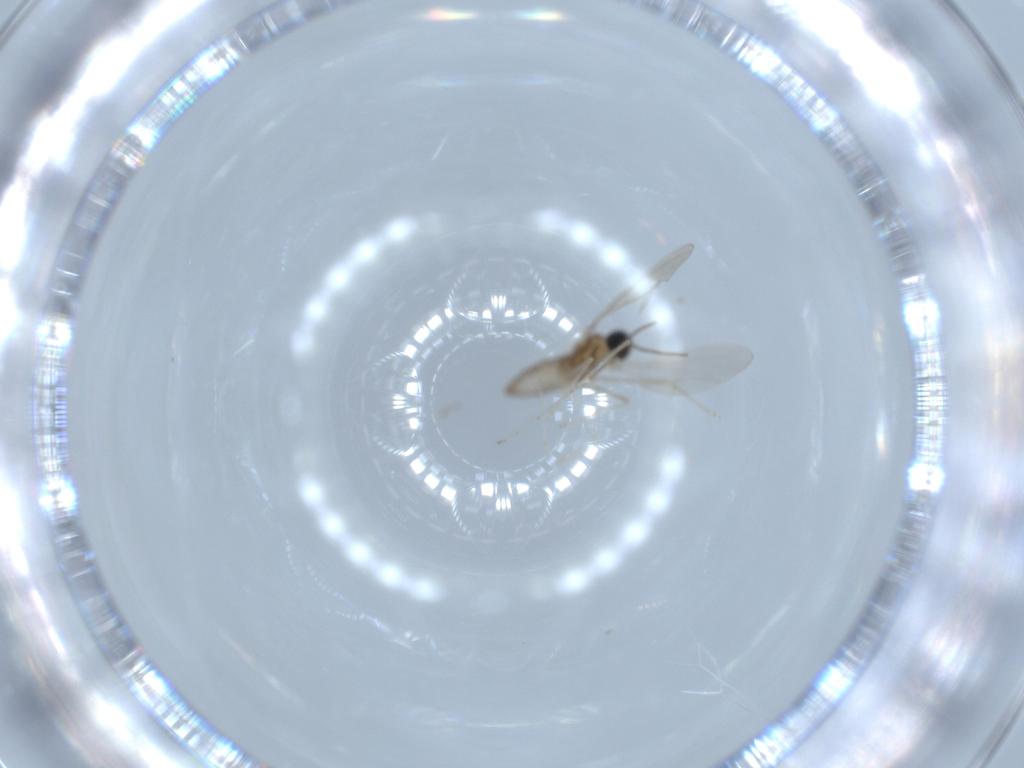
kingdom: Animalia
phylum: Arthropoda
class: Insecta
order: Diptera
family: Cecidomyiidae
